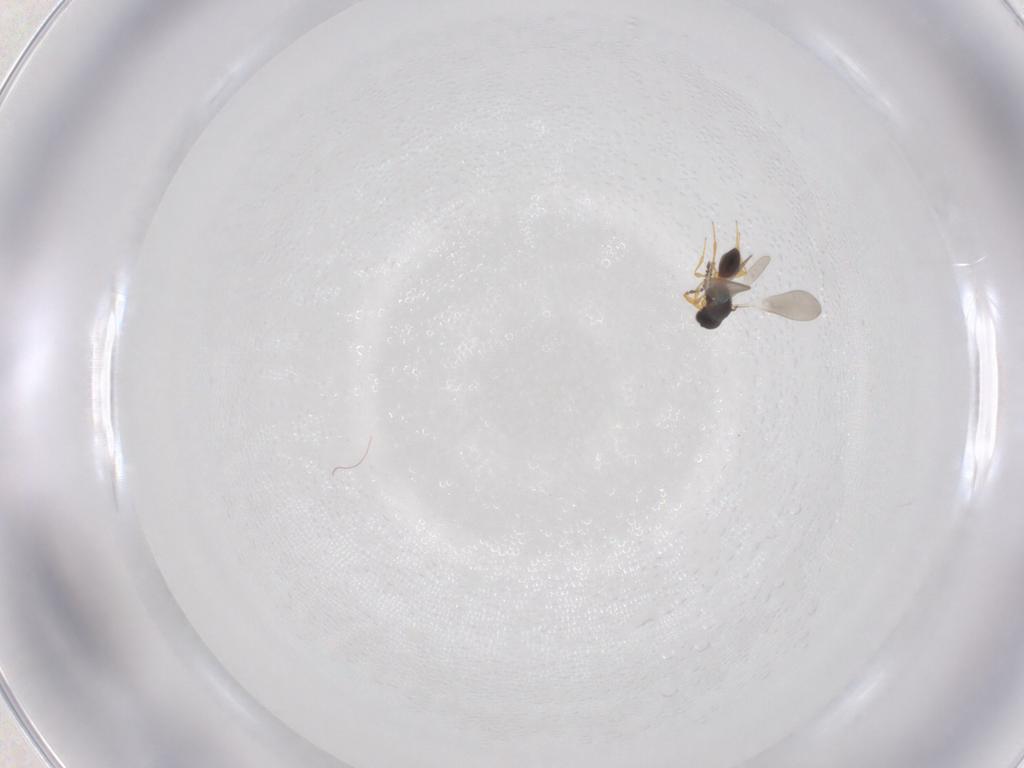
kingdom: Animalia
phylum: Arthropoda
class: Insecta
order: Hymenoptera
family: Platygastridae
